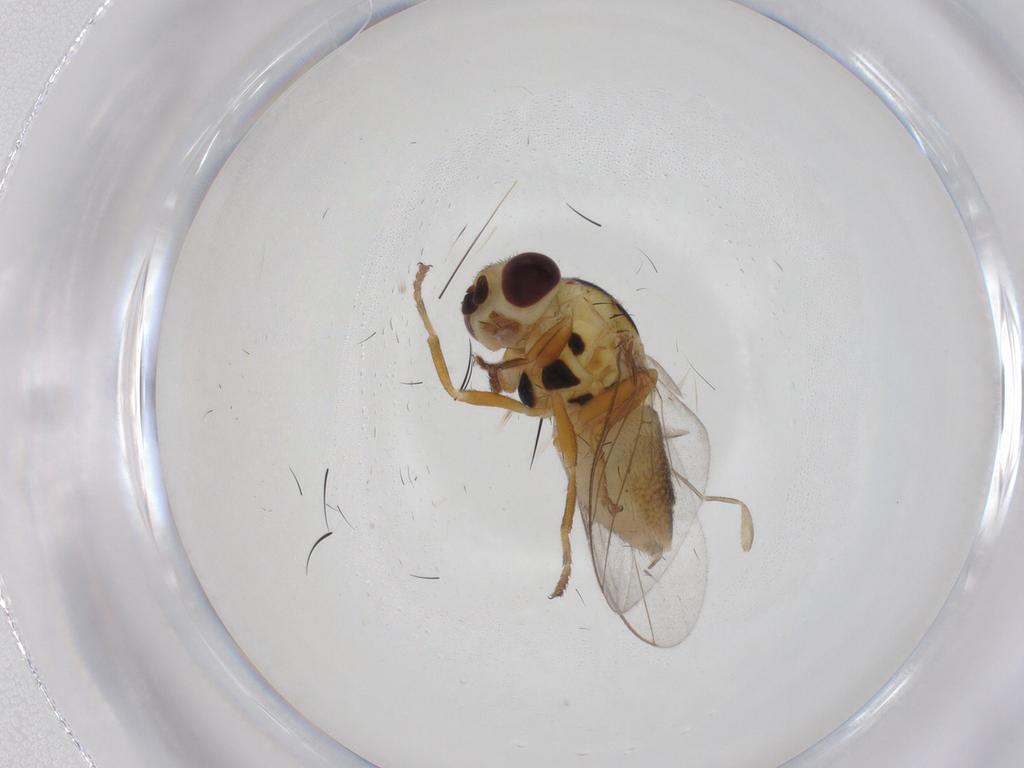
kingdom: Animalia
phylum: Arthropoda
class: Insecta
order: Diptera
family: Chloropidae
